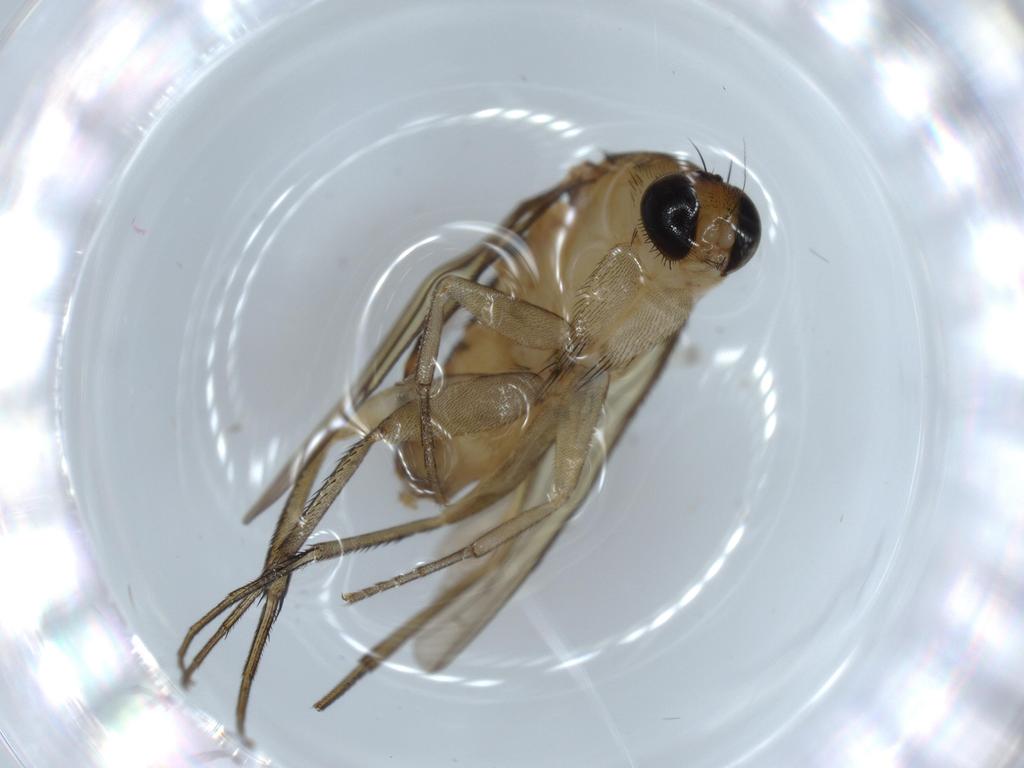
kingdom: Animalia
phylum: Arthropoda
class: Insecta
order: Diptera
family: Phoridae
